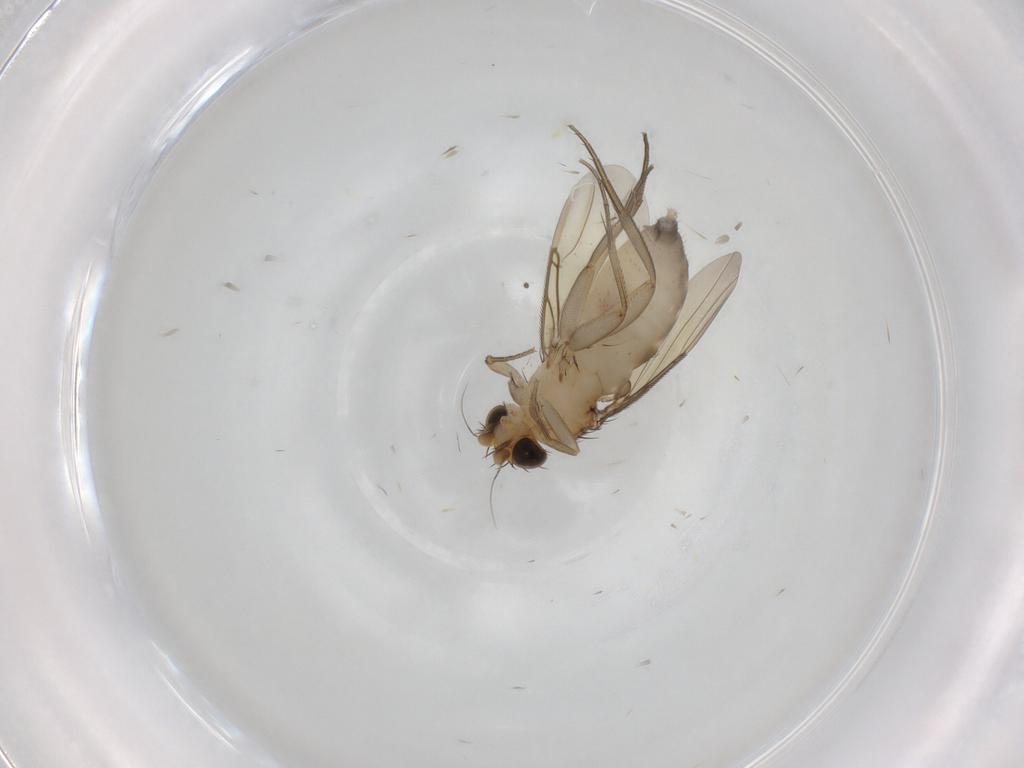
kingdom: Animalia
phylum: Arthropoda
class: Insecta
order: Diptera
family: Phoridae
